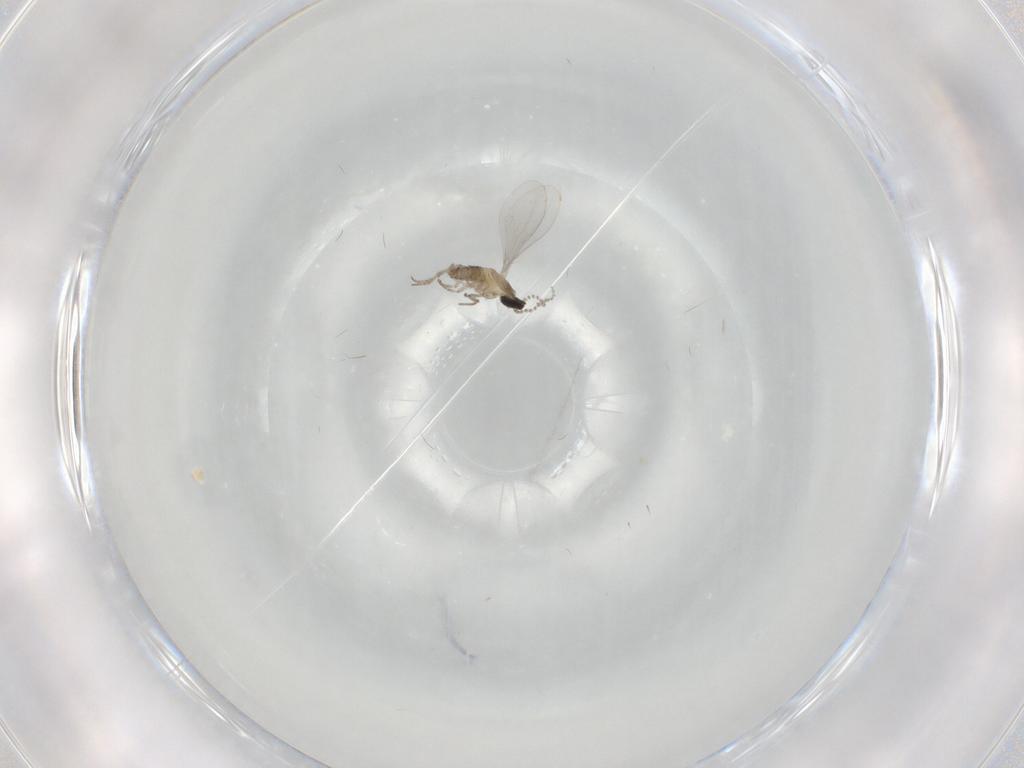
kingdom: Animalia
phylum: Arthropoda
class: Insecta
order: Diptera
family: Cecidomyiidae
